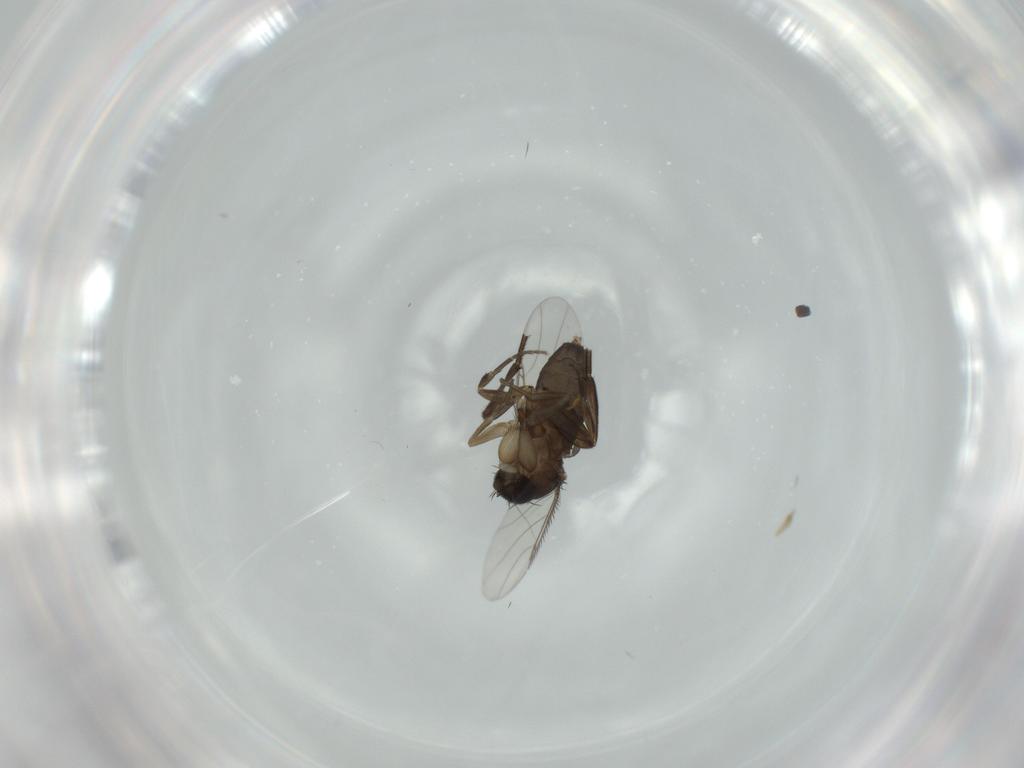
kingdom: Animalia
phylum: Arthropoda
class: Insecta
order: Diptera
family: Phoridae
